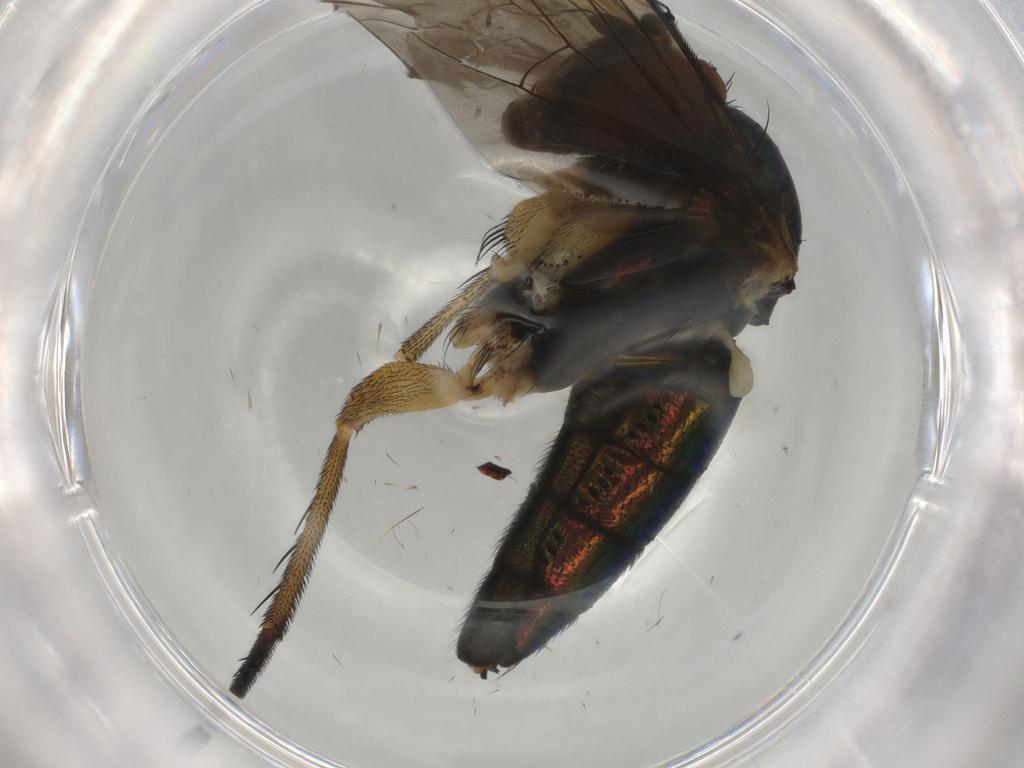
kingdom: Animalia
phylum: Arthropoda
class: Insecta
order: Diptera
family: Dolichopodidae
